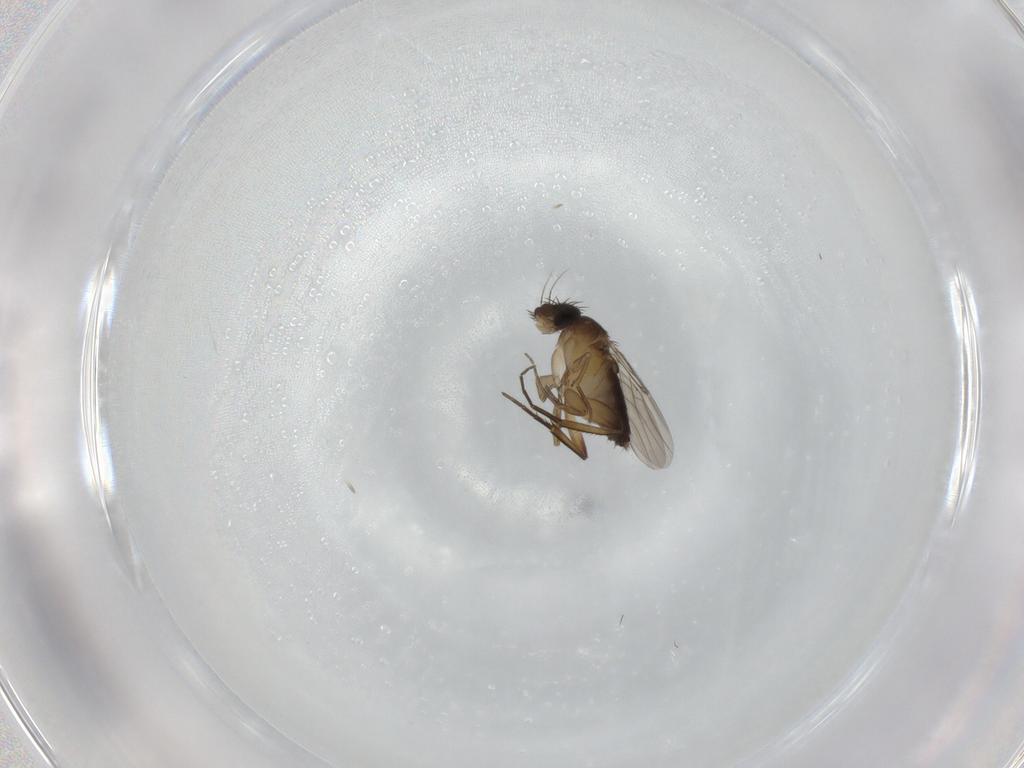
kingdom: Animalia
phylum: Arthropoda
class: Insecta
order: Diptera
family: Phoridae
